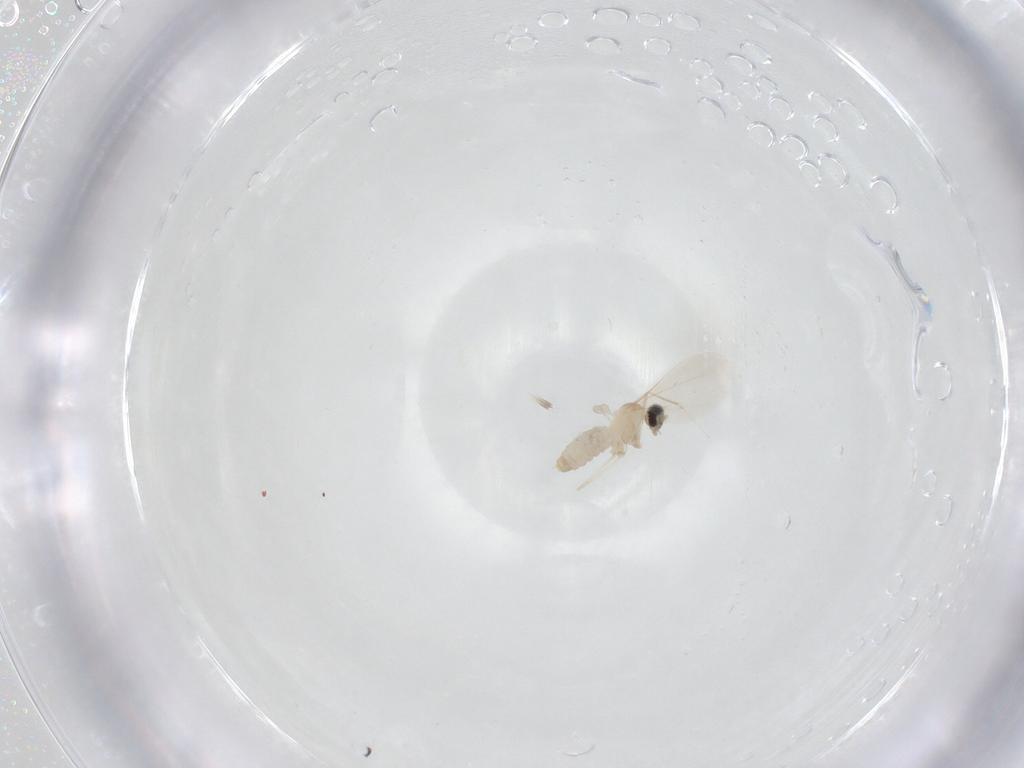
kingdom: Animalia
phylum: Arthropoda
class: Insecta
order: Diptera
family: Cecidomyiidae
